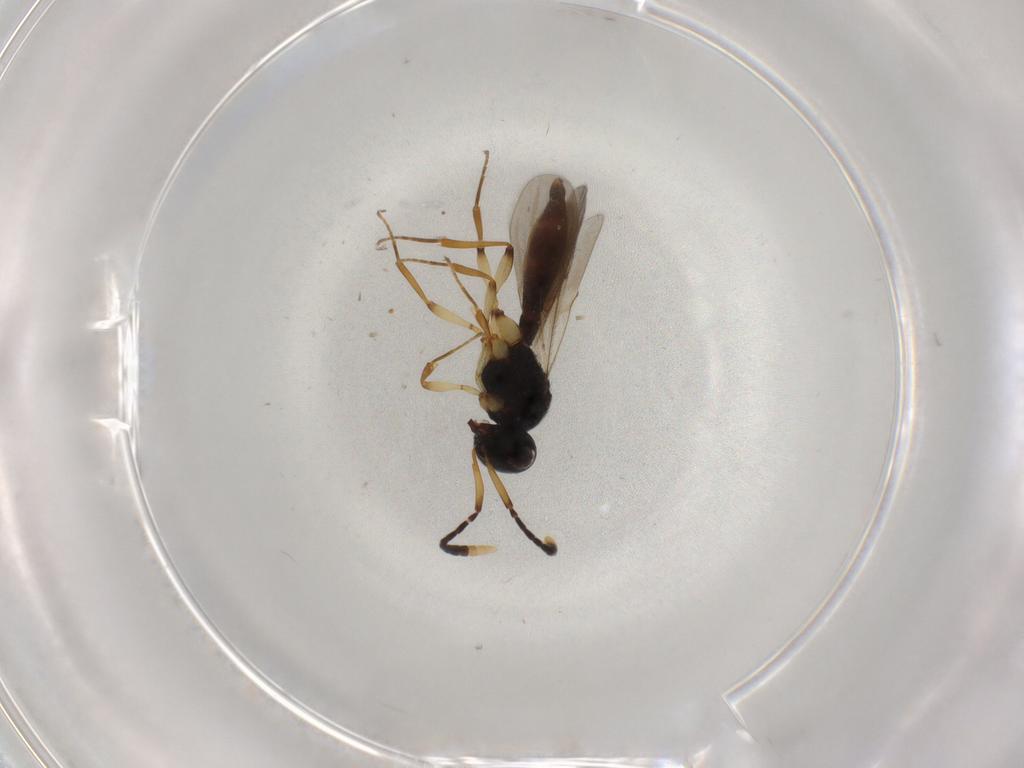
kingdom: Animalia
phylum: Arthropoda
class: Insecta
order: Hymenoptera
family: Scelionidae
